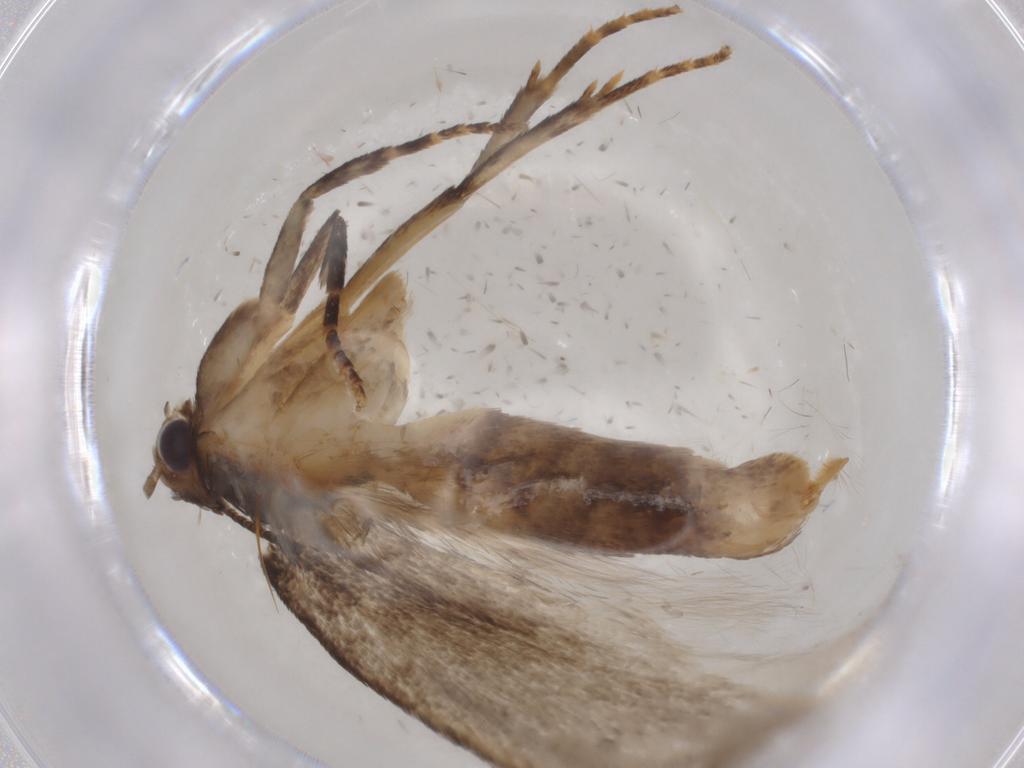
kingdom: Animalia
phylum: Arthropoda
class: Insecta
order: Lepidoptera
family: Gelechiidae
